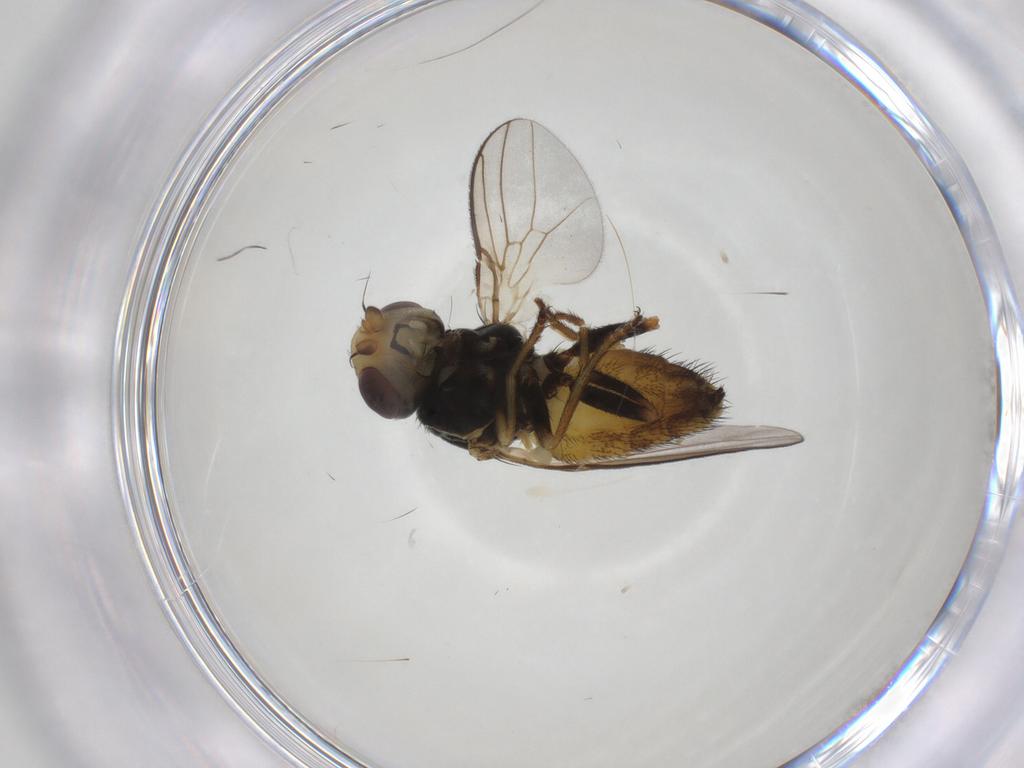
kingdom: Animalia
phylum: Arthropoda
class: Insecta
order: Diptera
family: Chloropidae
